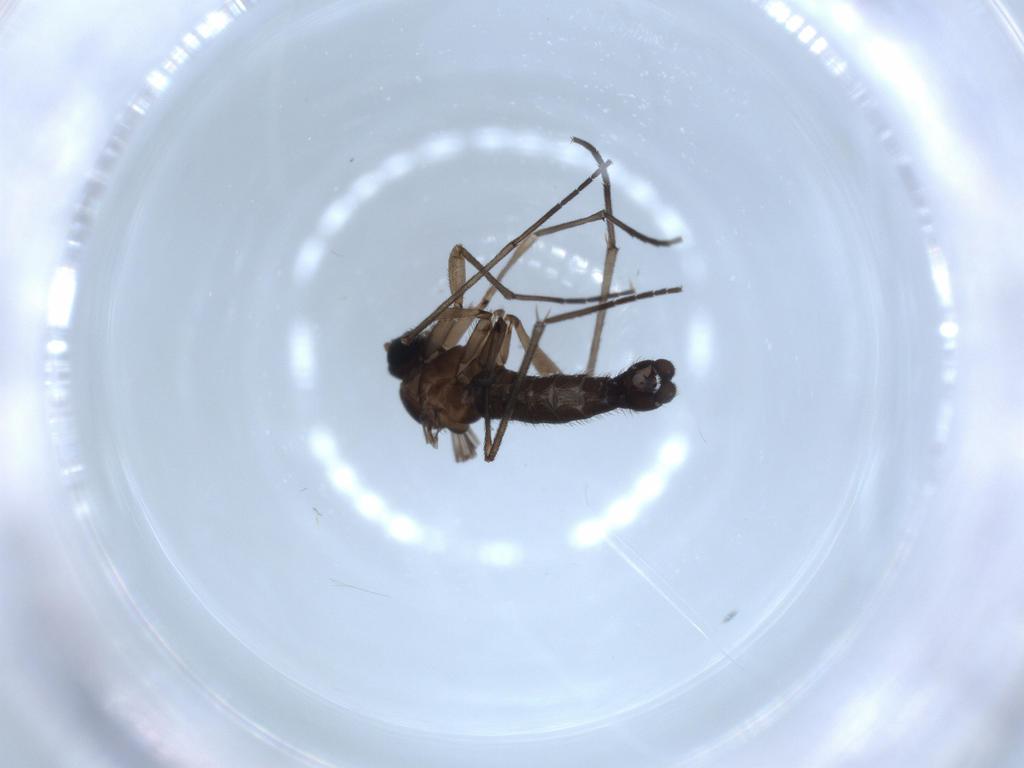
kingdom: Animalia
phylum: Arthropoda
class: Insecta
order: Diptera
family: Sciaridae
